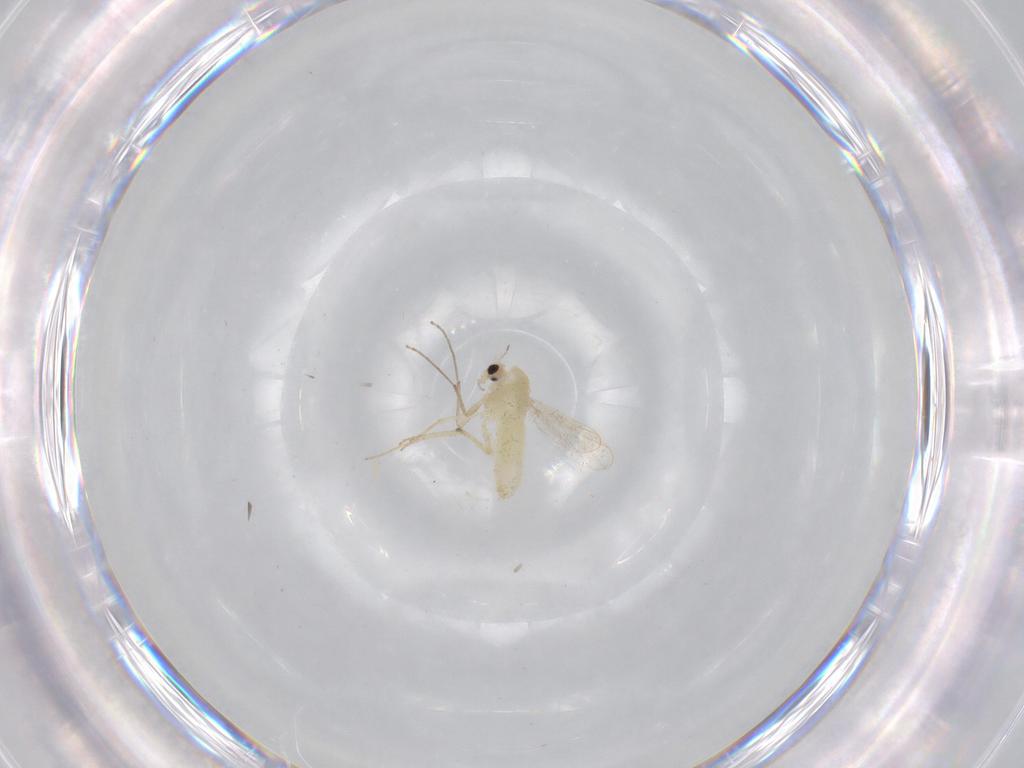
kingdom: Animalia
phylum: Arthropoda
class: Insecta
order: Diptera
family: Chironomidae
